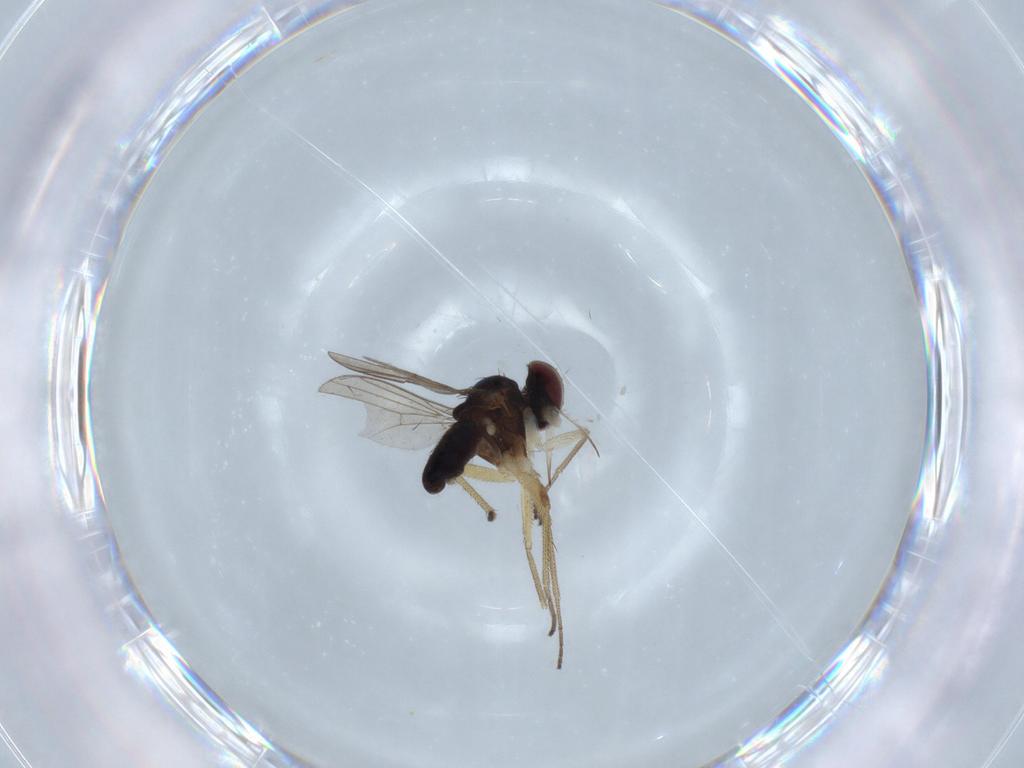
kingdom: Animalia
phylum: Arthropoda
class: Insecta
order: Diptera
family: Dolichopodidae
